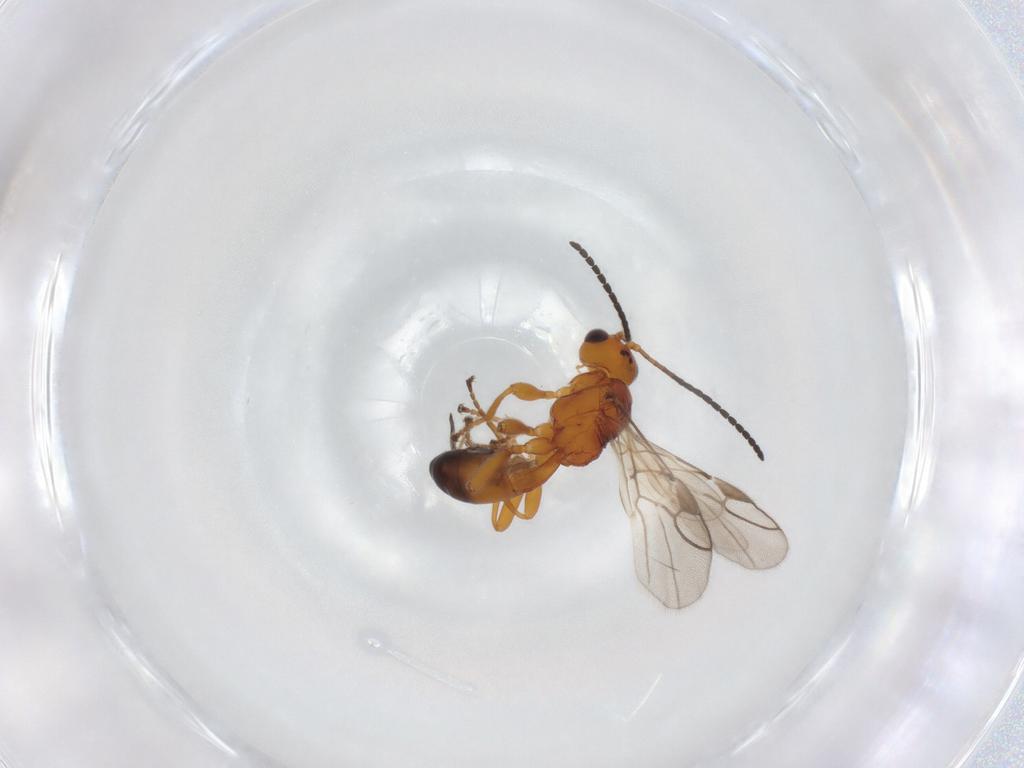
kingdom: Animalia
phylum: Arthropoda
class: Insecta
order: Hymenoptera
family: Braconidae
